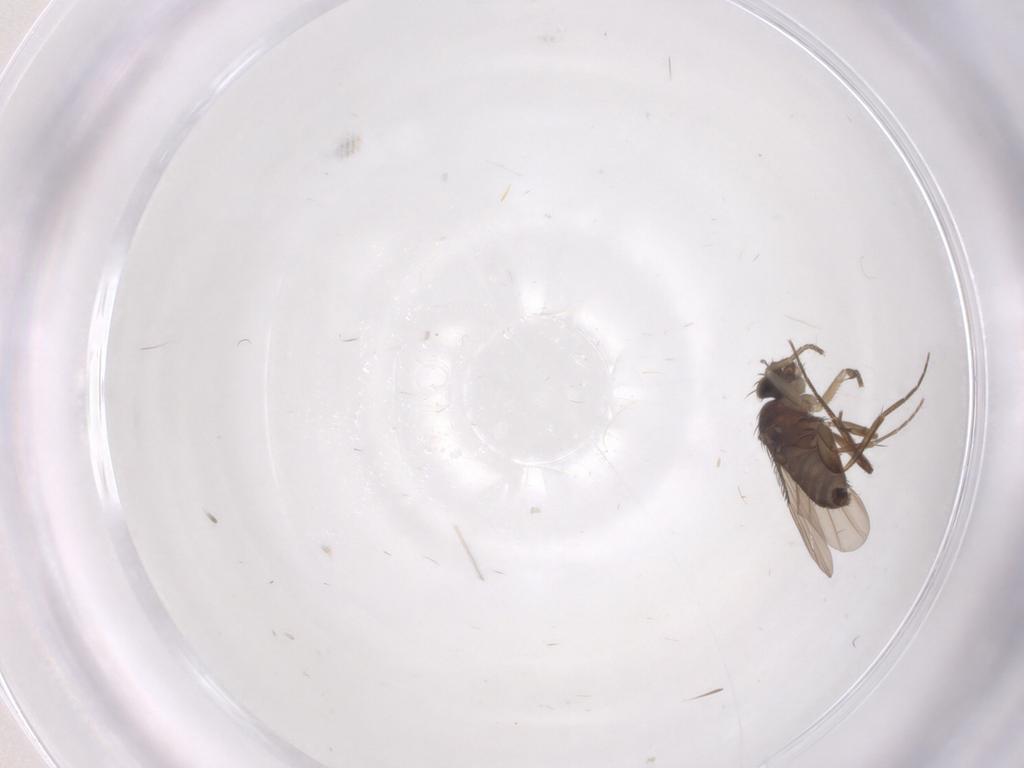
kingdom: Animalia
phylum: Arthropoda
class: Insecta
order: Diptera
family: Phoridae
